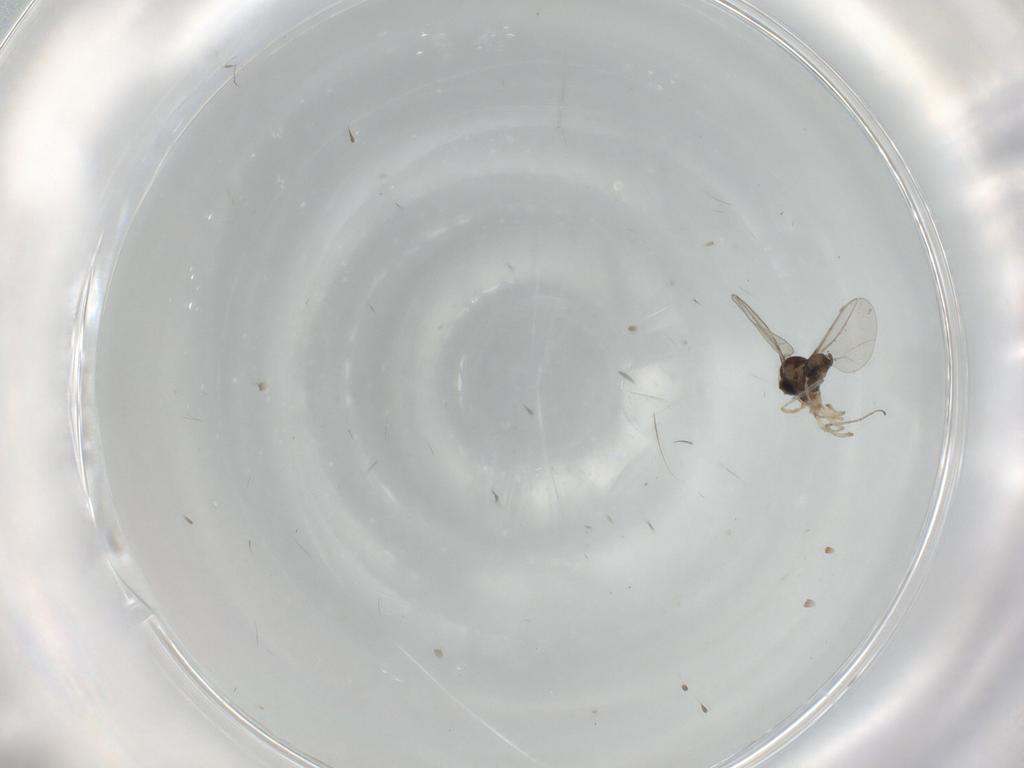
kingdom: Animalia
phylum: Arthropoda
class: Insecta
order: Diptera
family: Cecidomyiidae
